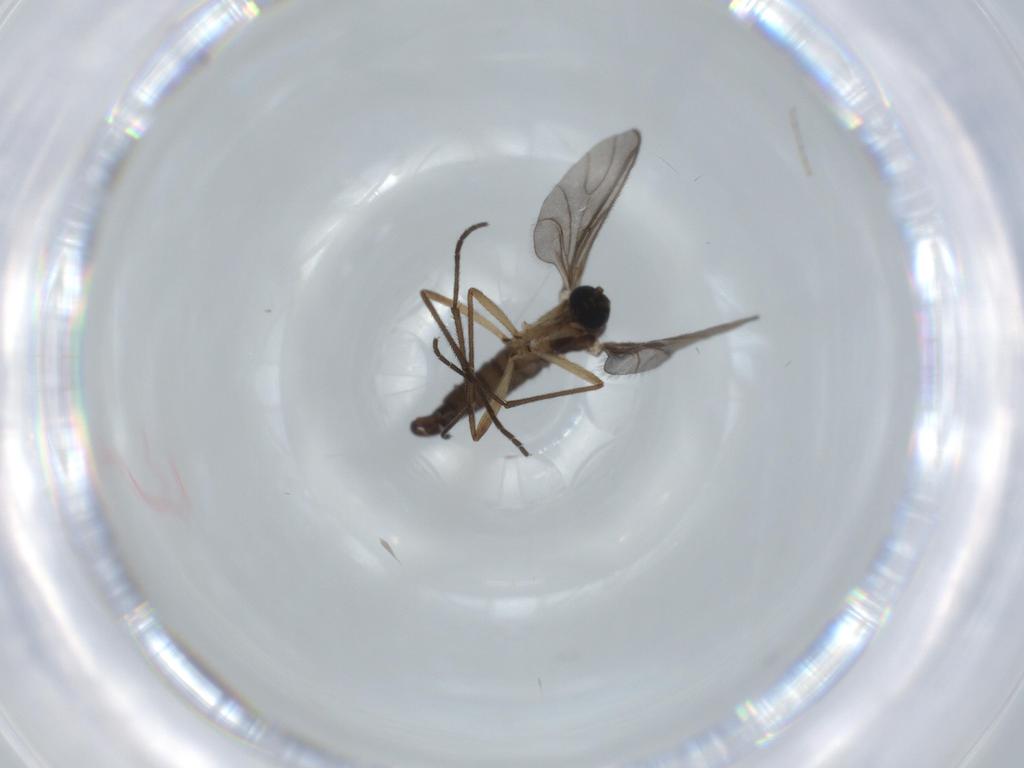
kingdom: Animalia
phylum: Arthropoda
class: Insecta
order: Diptera
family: Sciaridae
